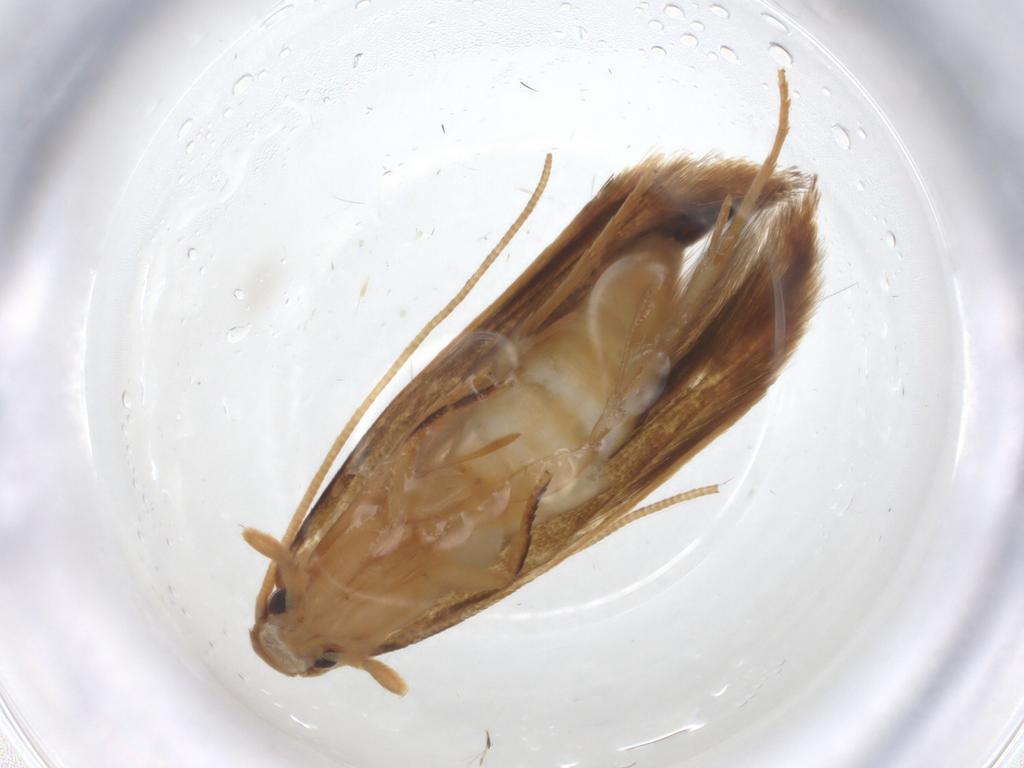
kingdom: Animalia
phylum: Arthropoda
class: Insecta
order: Lepidoptera
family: Tineidae
